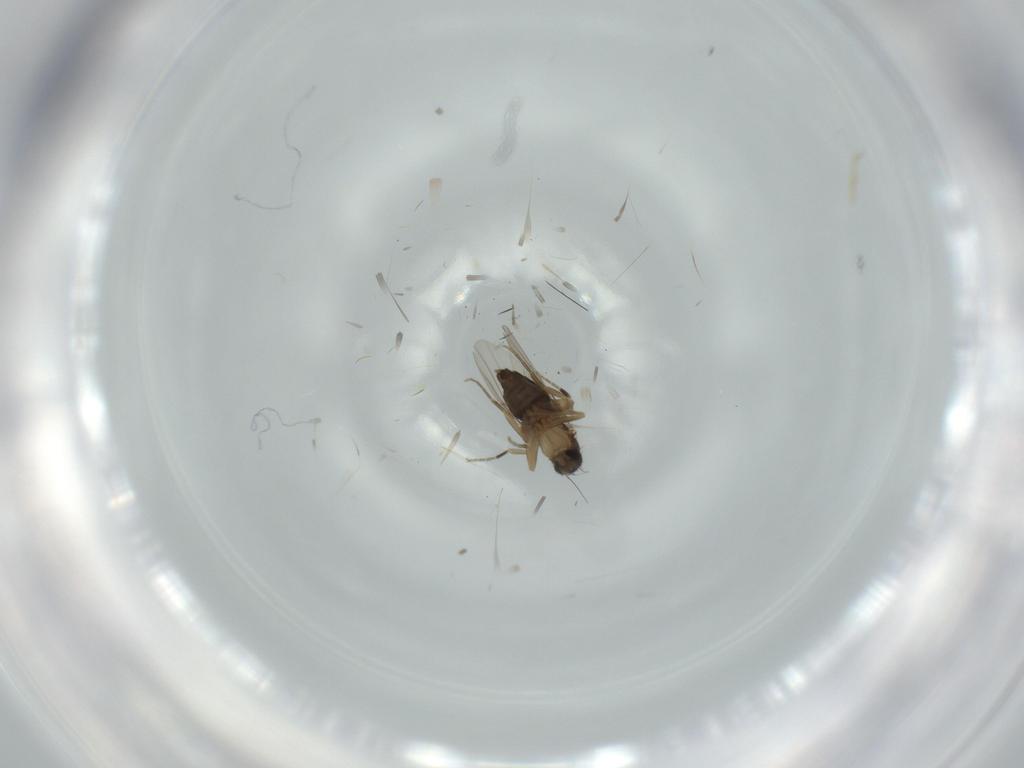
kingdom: Animalia
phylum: Arthropoda
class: Insecta
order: Diptera
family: Phoridae
